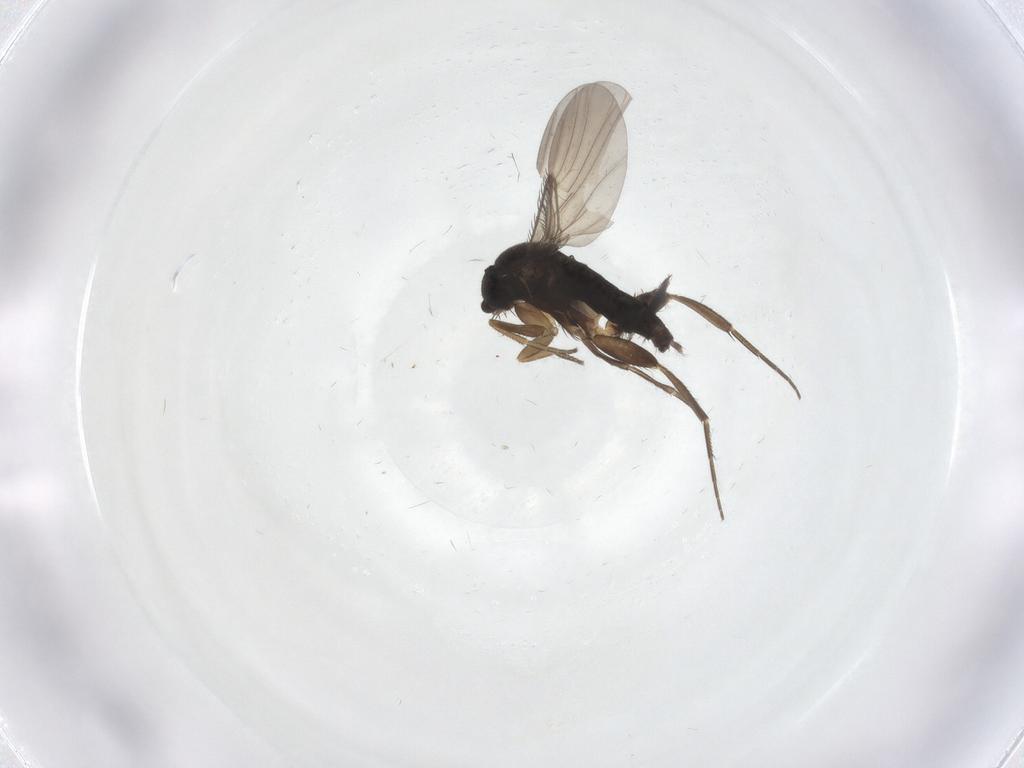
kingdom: Animalia
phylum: Arthropoda
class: Insecta
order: Diptera
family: Phoridae
